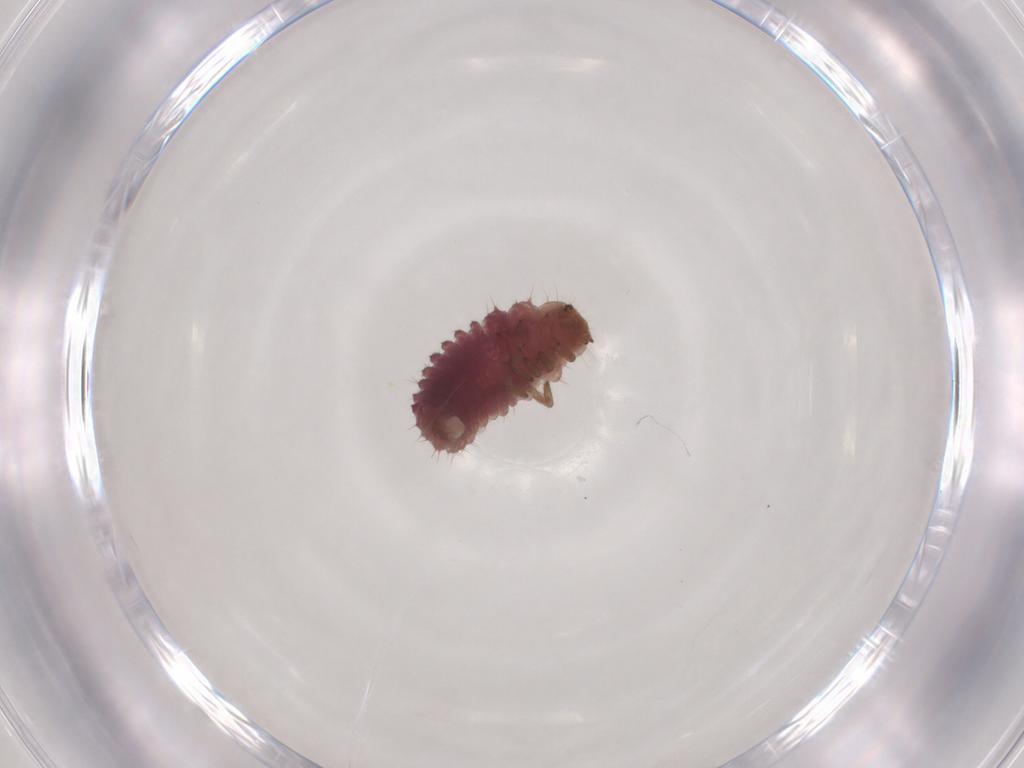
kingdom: Animalia
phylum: Arthropoda
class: Insecta
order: Coleoptera
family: Coccinellidae
